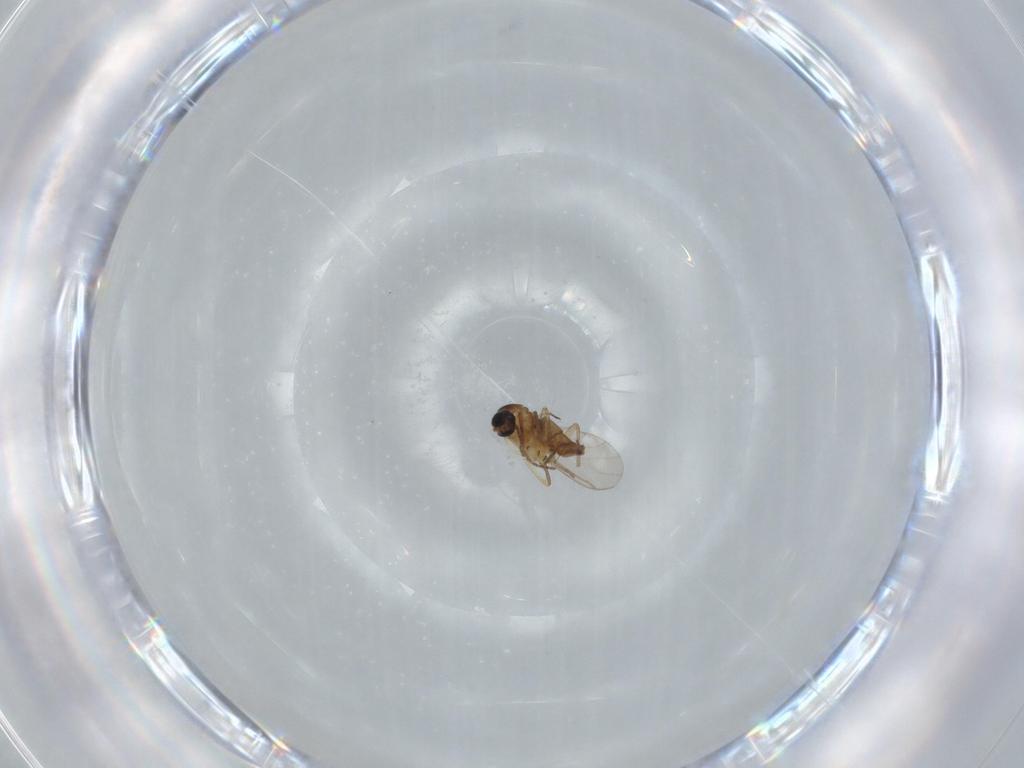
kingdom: Animalia
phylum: Arthropoda
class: Insecta
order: Diptera
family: Sciaridae
